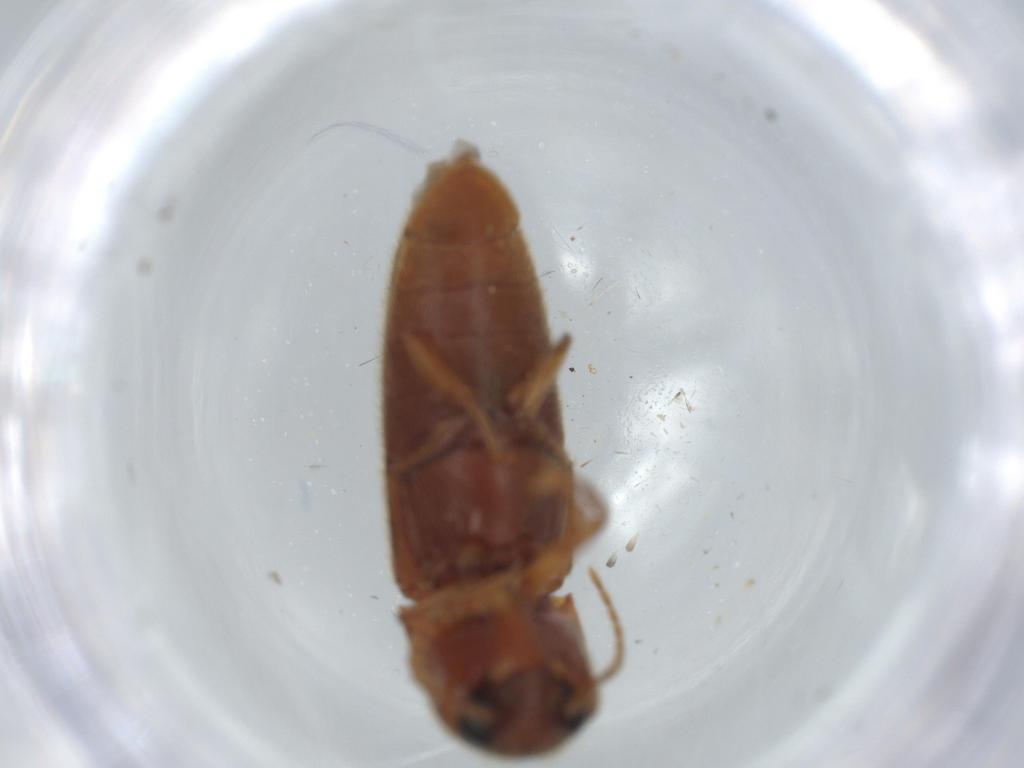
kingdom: Animalia
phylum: Arthropoda
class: Insecta
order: Coleoptera
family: Elateridae
